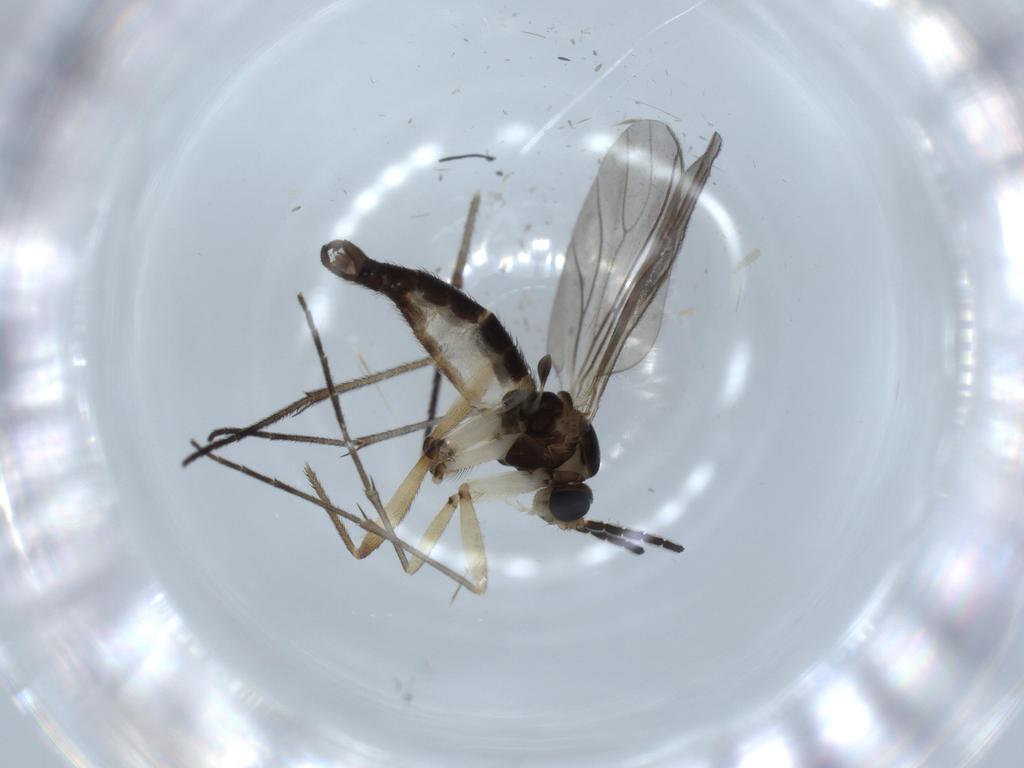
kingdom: Animalia
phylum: Arthropoda
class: Insecta
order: Diptera
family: Sciaridae
